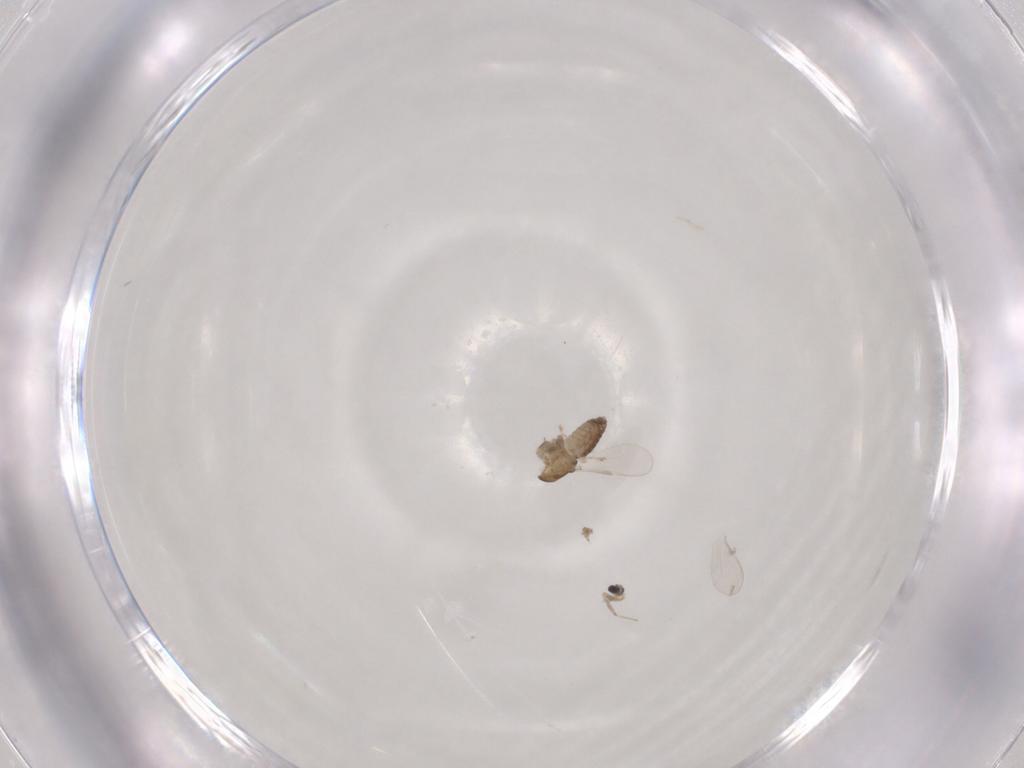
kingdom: Animalia
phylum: Arthropoda
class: Insecta
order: Diptera
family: Chironomidae
